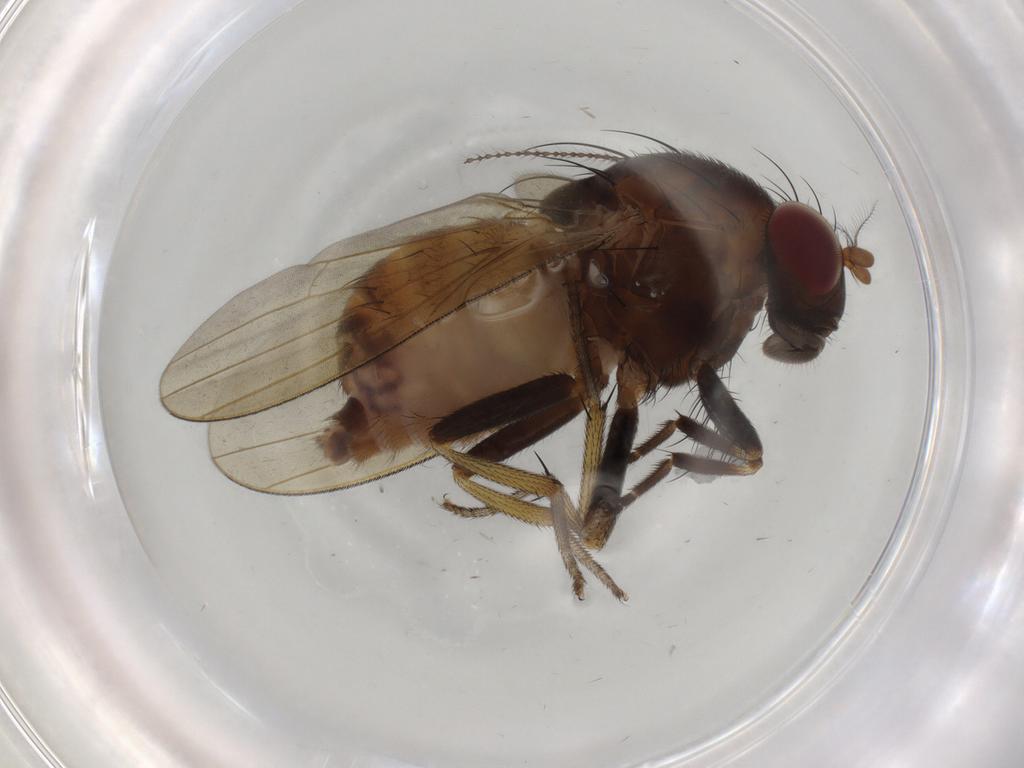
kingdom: Animalia
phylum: Arthropoda
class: Insecta
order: Diptera
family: Lauxaniidae
